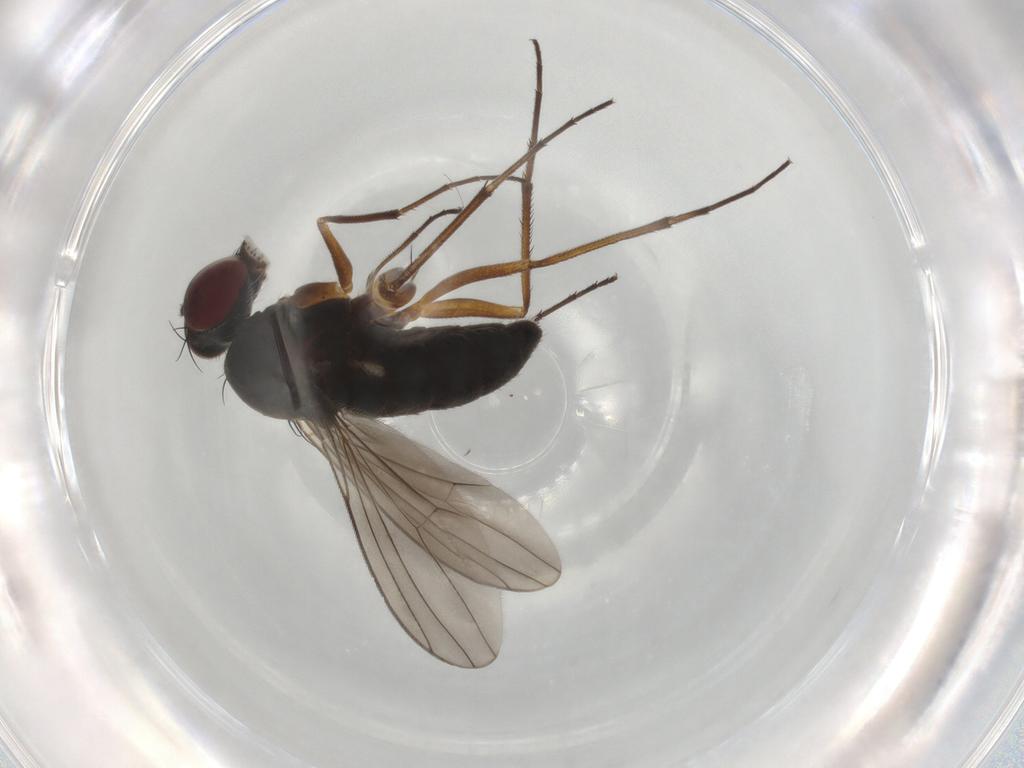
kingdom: Animalia
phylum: Arthropoda
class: Insecta
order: Diptera
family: Dolichopodidae
